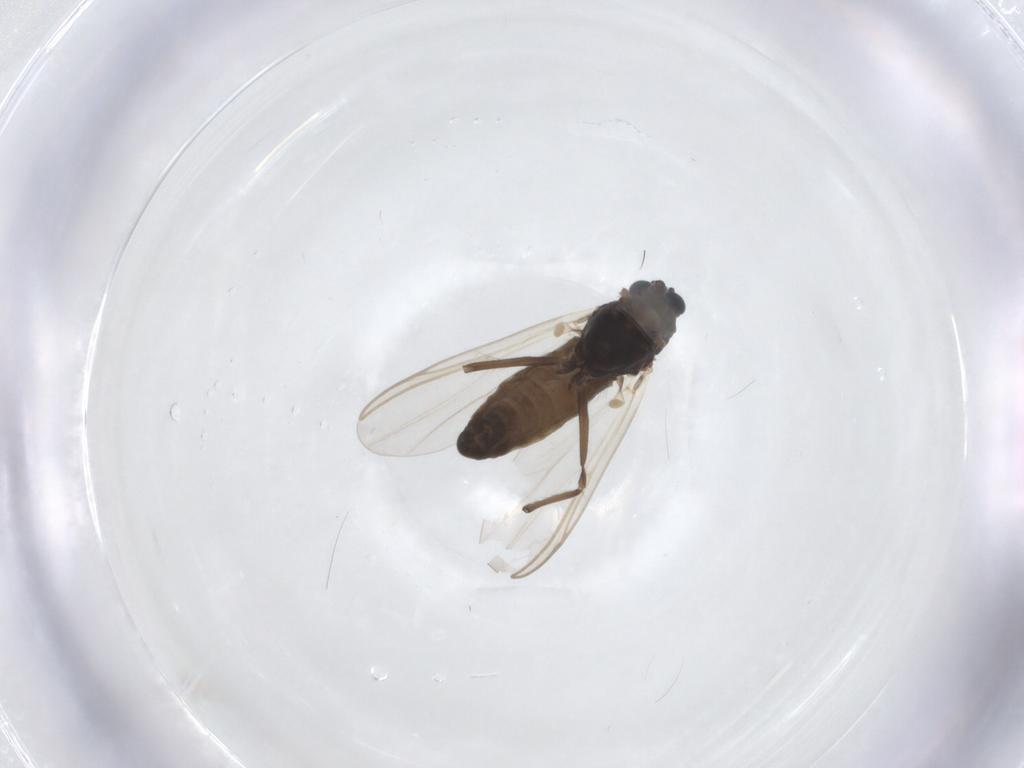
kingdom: Animalia
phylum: Arthropoda
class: Insecta
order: Diptera
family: Chironomidae
